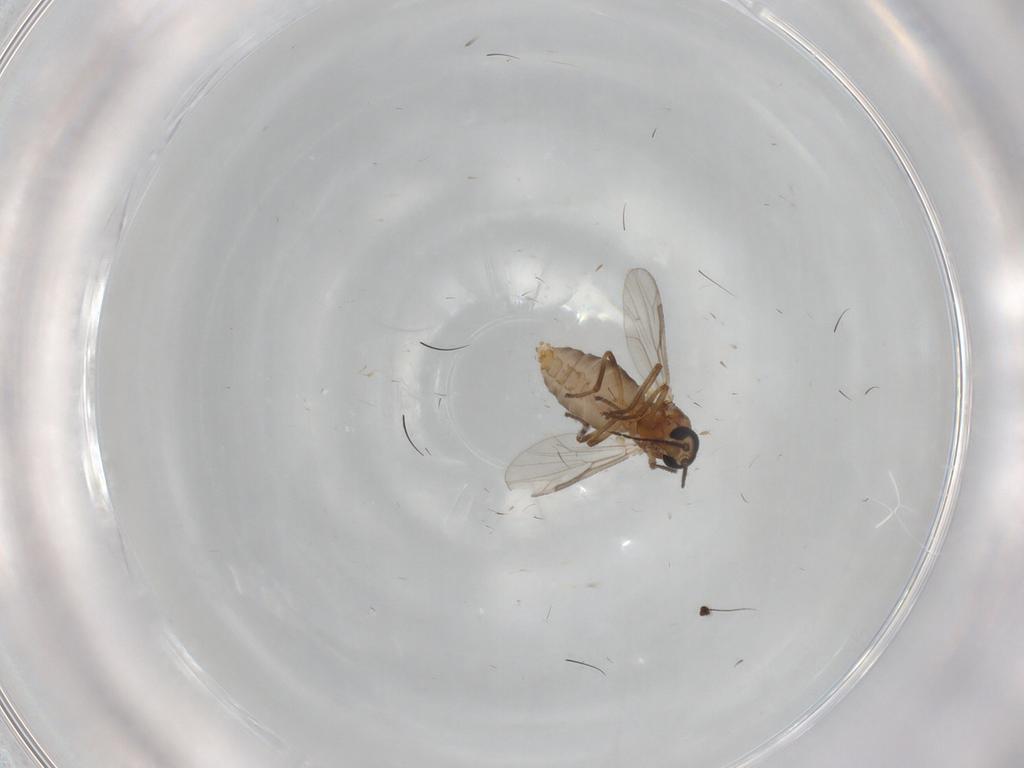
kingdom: Animalia
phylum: Arthropoda
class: Insecta
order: Diptera
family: Ceratopogonidae
